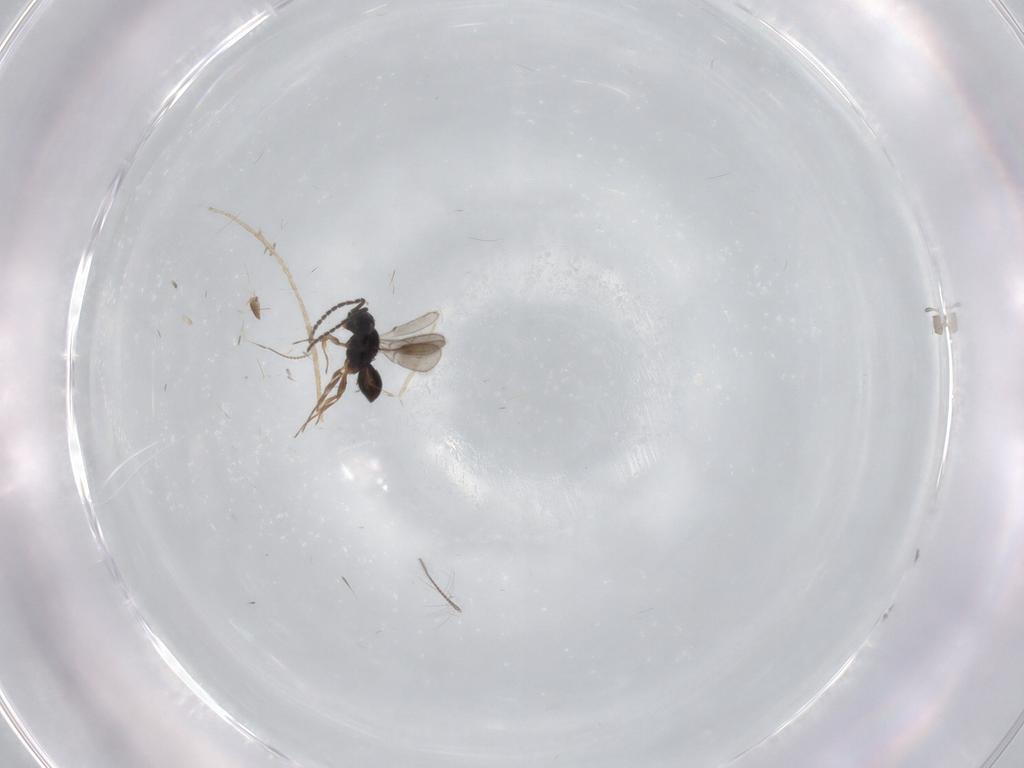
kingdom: Animalia
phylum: Arthropoda
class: Insecta
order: Hymenoptera
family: Scelionidae
